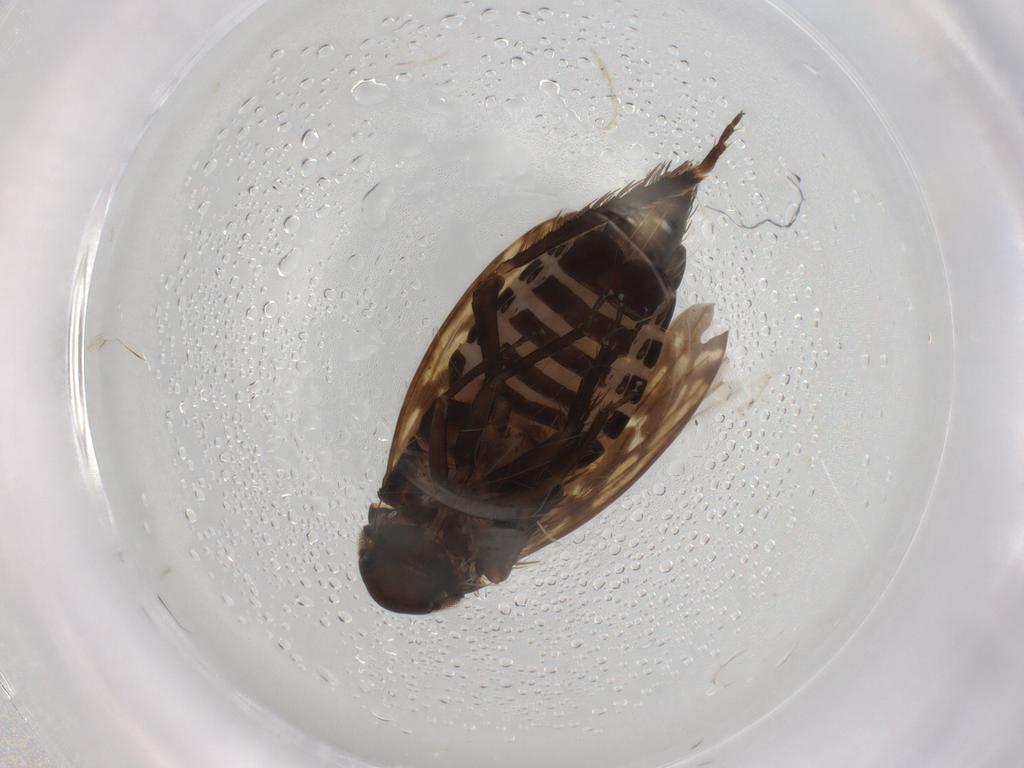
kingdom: Animalia
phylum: Arthropoda
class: Insecta
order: Hemiptera
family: Cicadellidae
